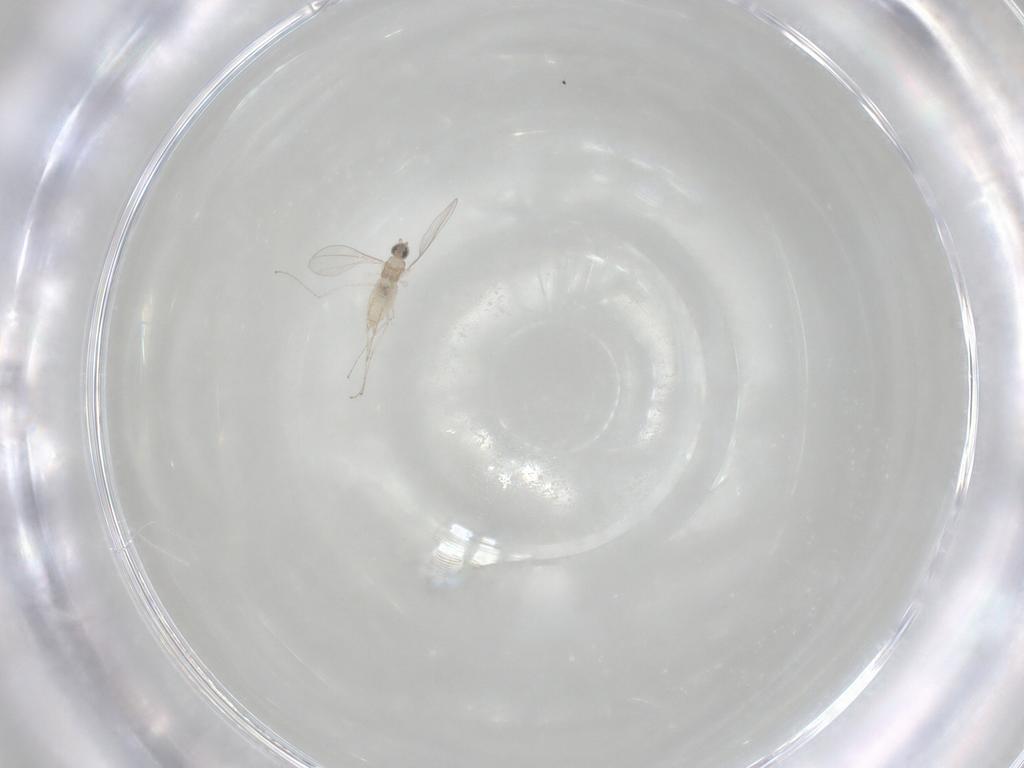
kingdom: Animalia
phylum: Arthropoda
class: Insecta
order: Diptera
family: Cecidomyiidae
